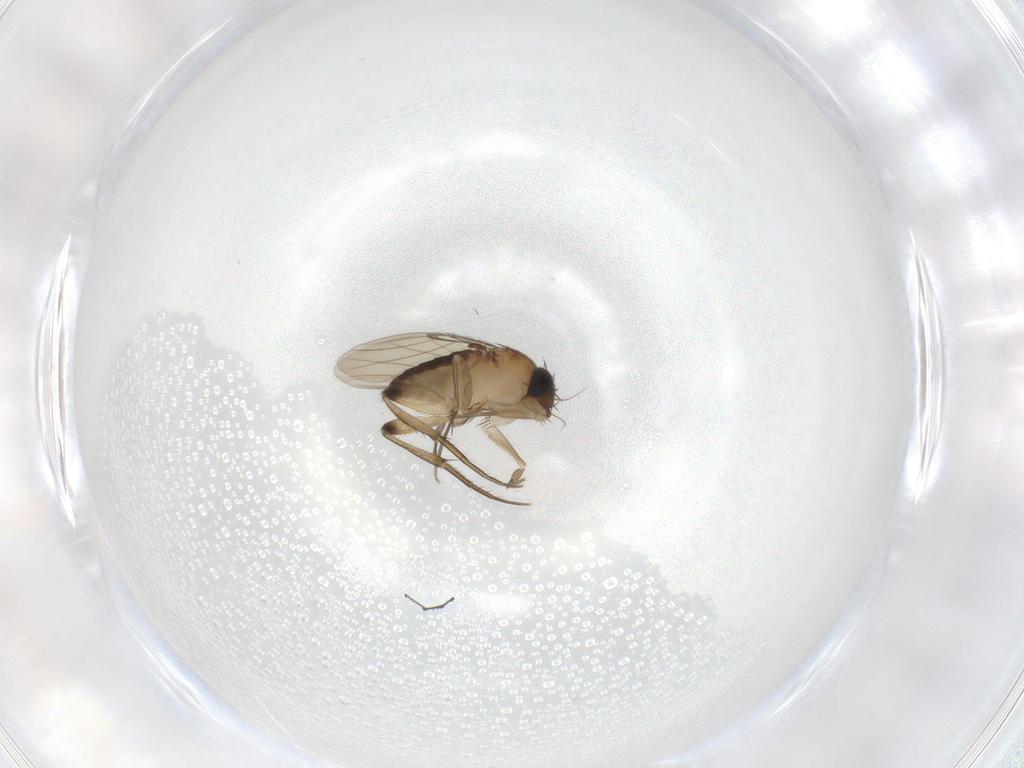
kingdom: Animalia
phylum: Arthropoda
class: Insecta
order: Diptera
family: Phoridae
